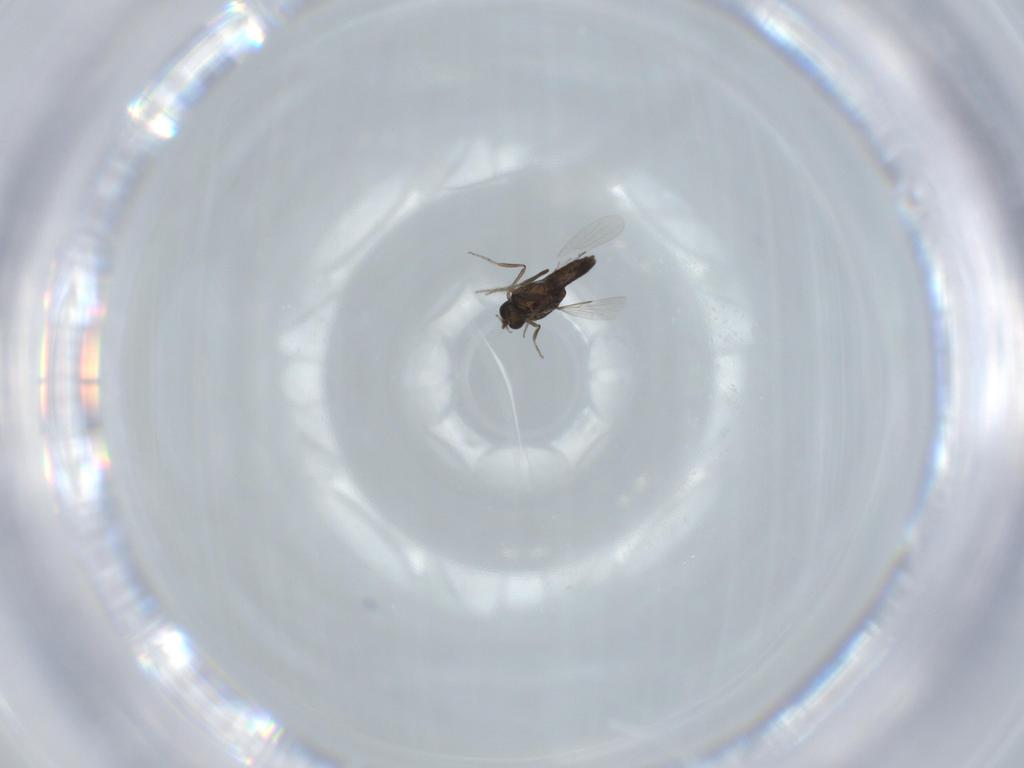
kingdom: Animalia
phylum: Arthropoda
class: Insecta
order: Diptera
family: Ceratopogonidae
